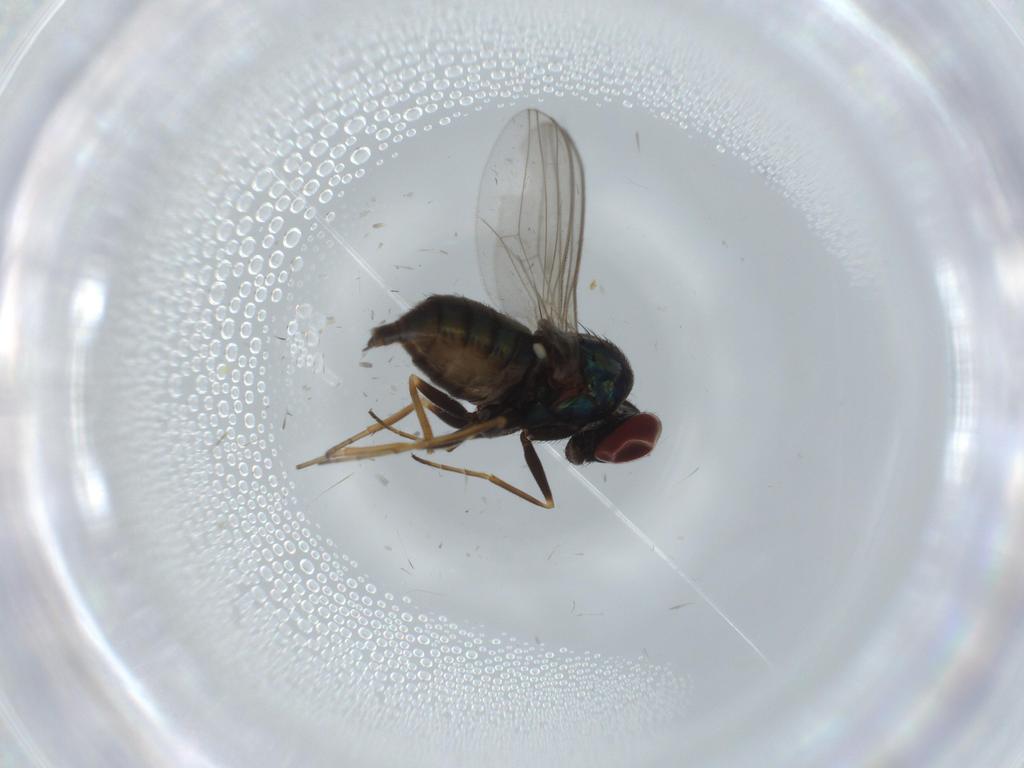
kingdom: Animalia
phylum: Arthropoda
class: Insecta
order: Diptera
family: Dolichopodidae
